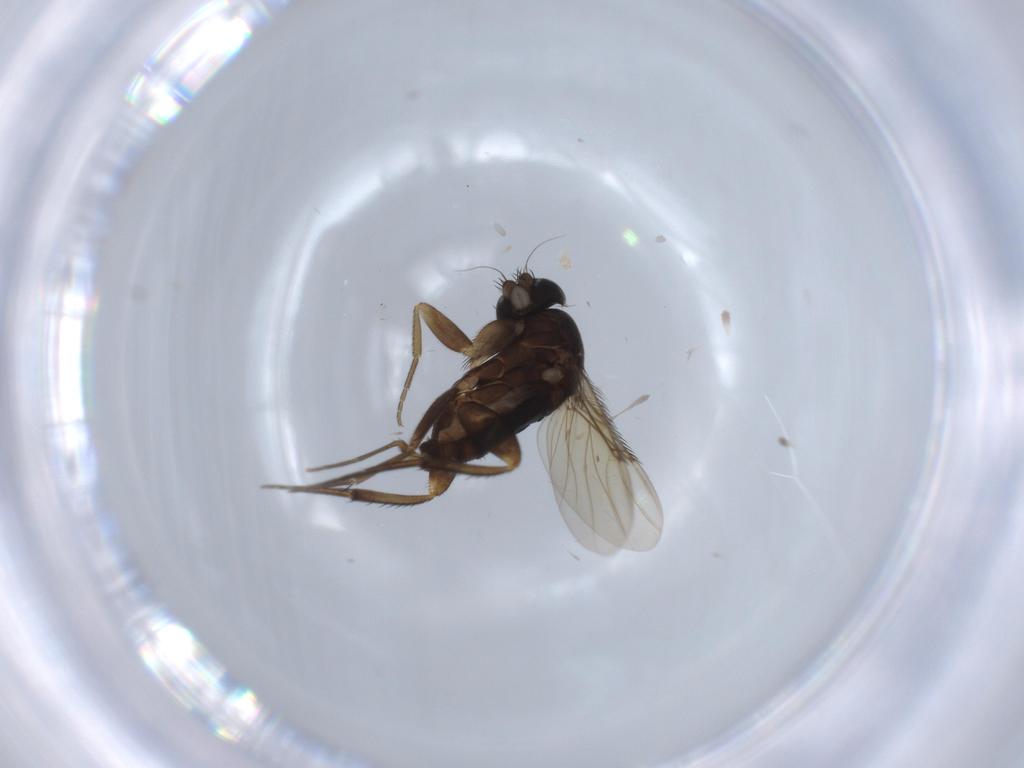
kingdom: Animalia
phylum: Arthropoda
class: Insecta
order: Diptera
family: Phoridae
